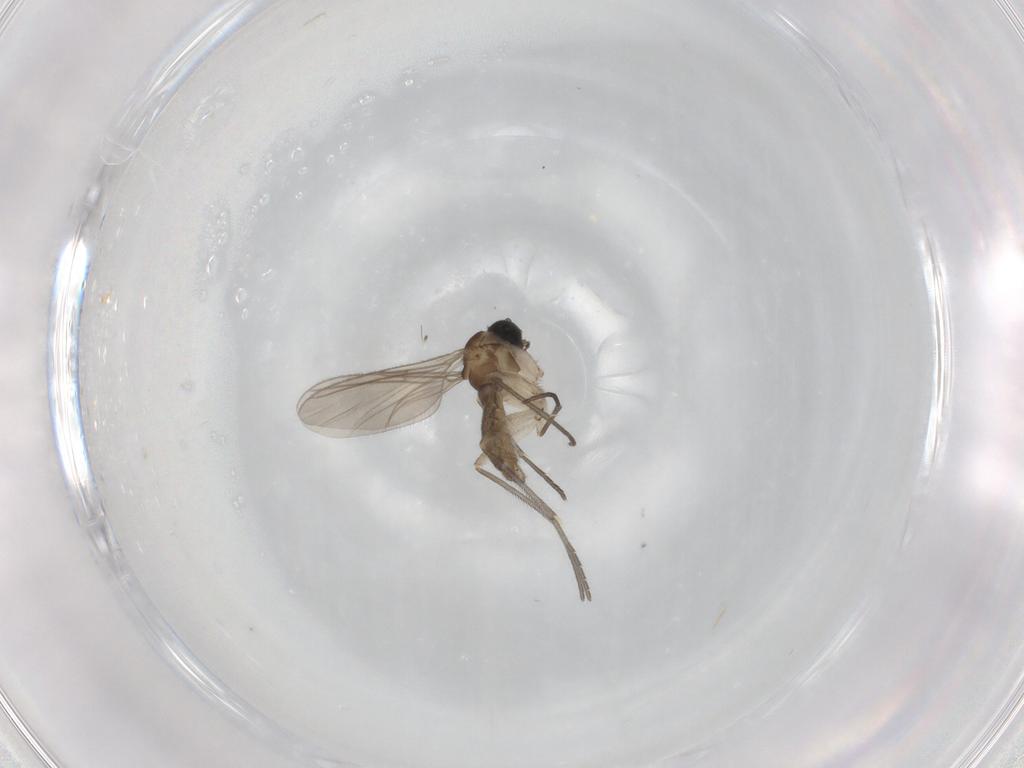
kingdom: Animalia
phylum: Arthropoda
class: Insecta
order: Diptera
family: Sciaridae
